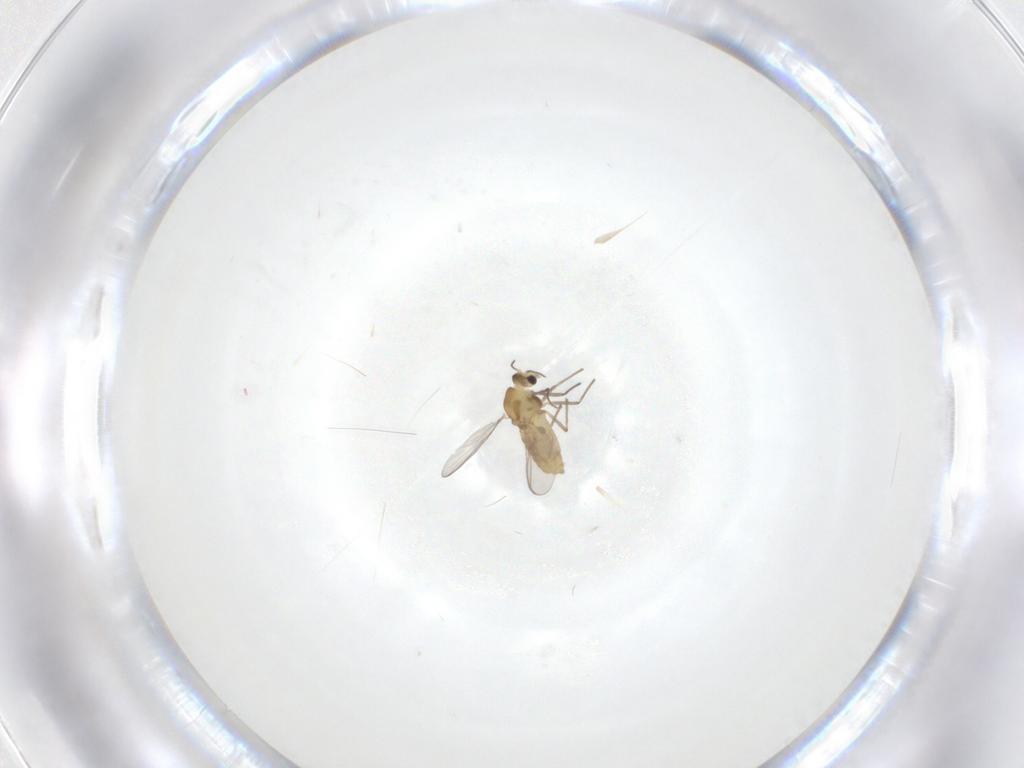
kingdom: Animalia
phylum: Arthropoda
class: Insecta
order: Diptera
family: Chironomidae
